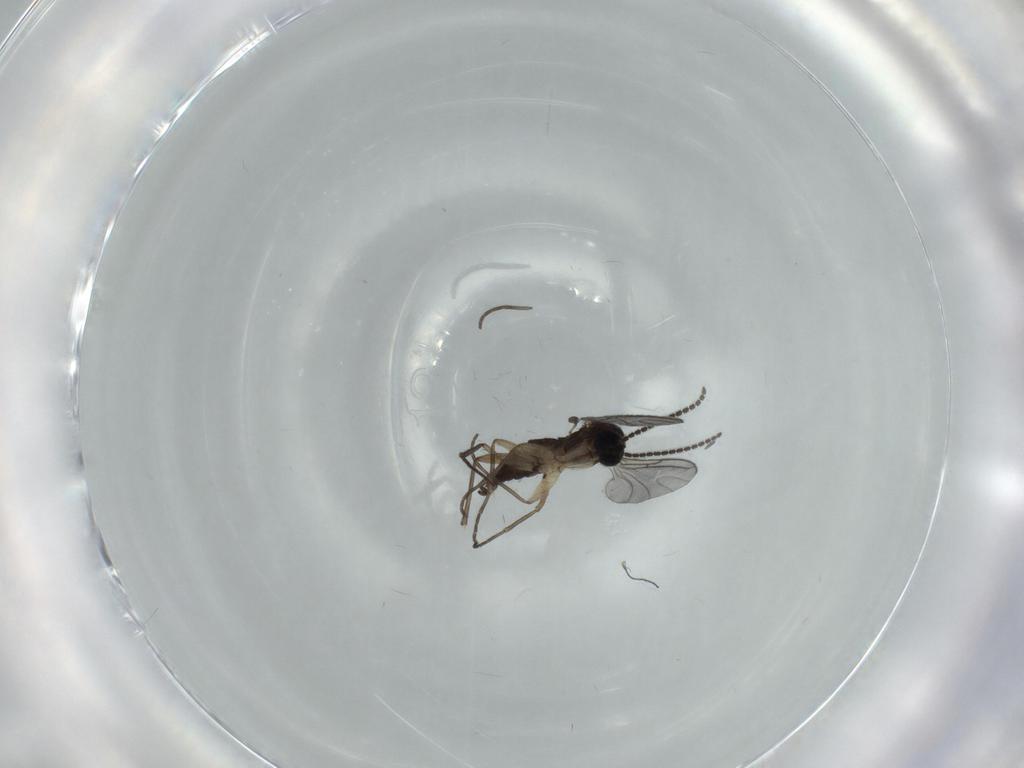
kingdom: Animalia
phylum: Arthropoda
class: Insecta
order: Diptera
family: Sciaridae
